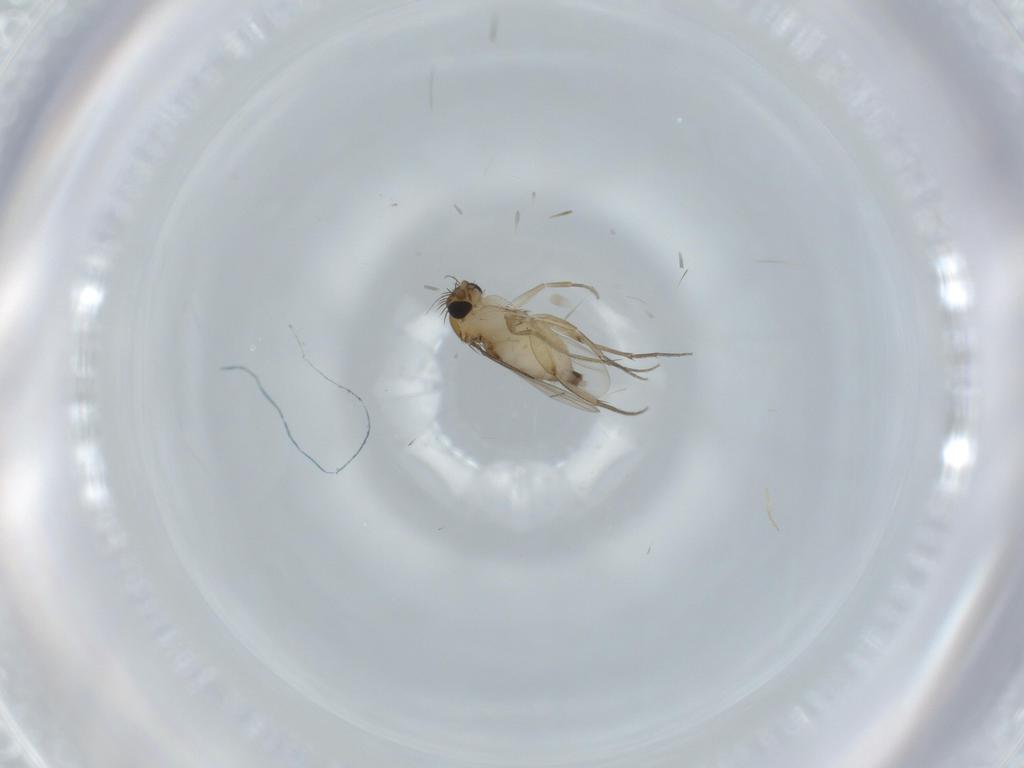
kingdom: Animalia
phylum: Arthropoda
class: Insecta
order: Diptera
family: Phoridae
